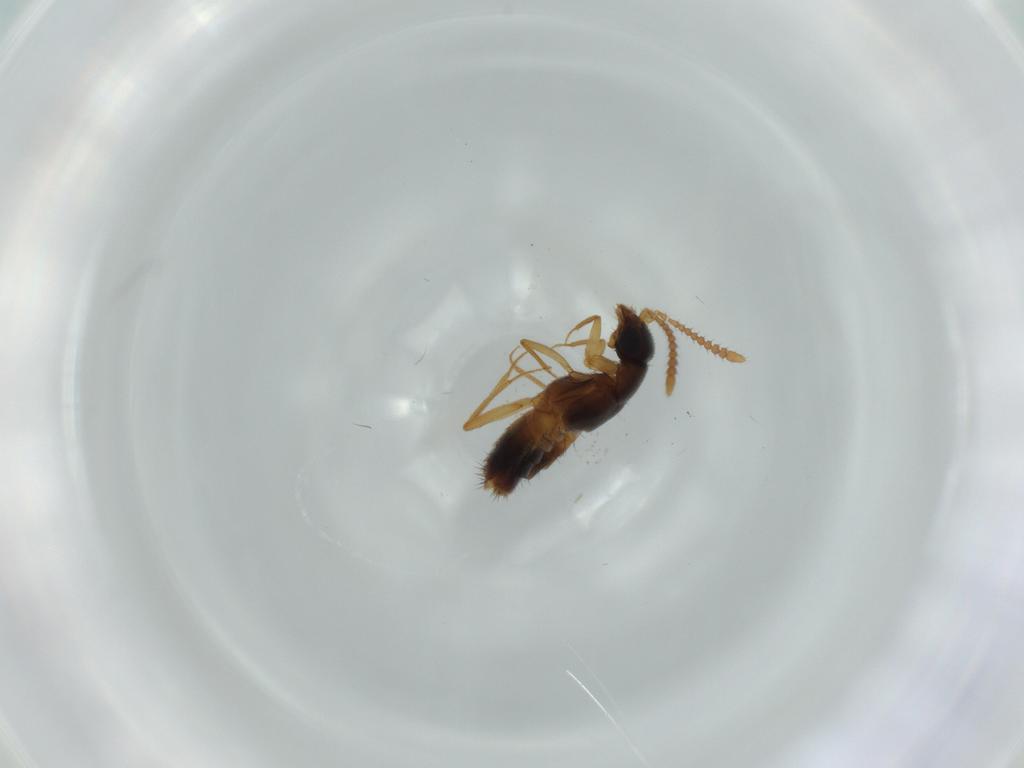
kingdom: Animalia
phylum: Arthropoda
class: Insecta
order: Coleoptera
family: Staphylinidae
